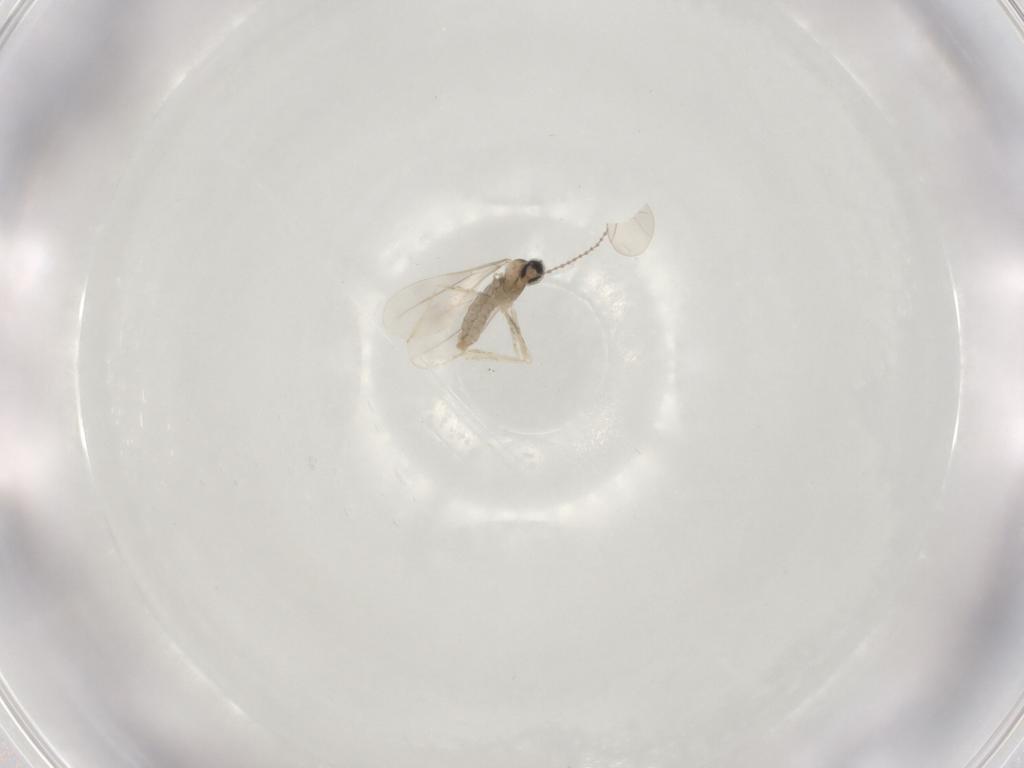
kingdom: Animalia
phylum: Arthropoda
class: Insecta
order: Diptera
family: Cecidomyiidae
